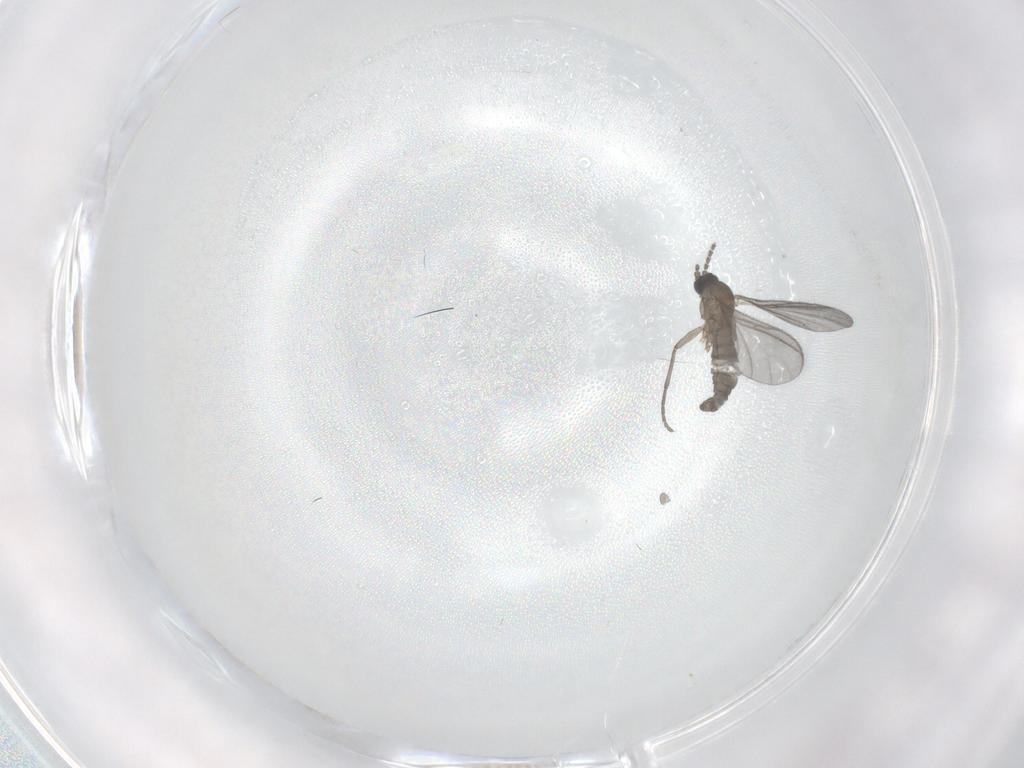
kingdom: Animalia
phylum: Arthropoda
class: Insecta
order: Diptera
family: Sciaridae
